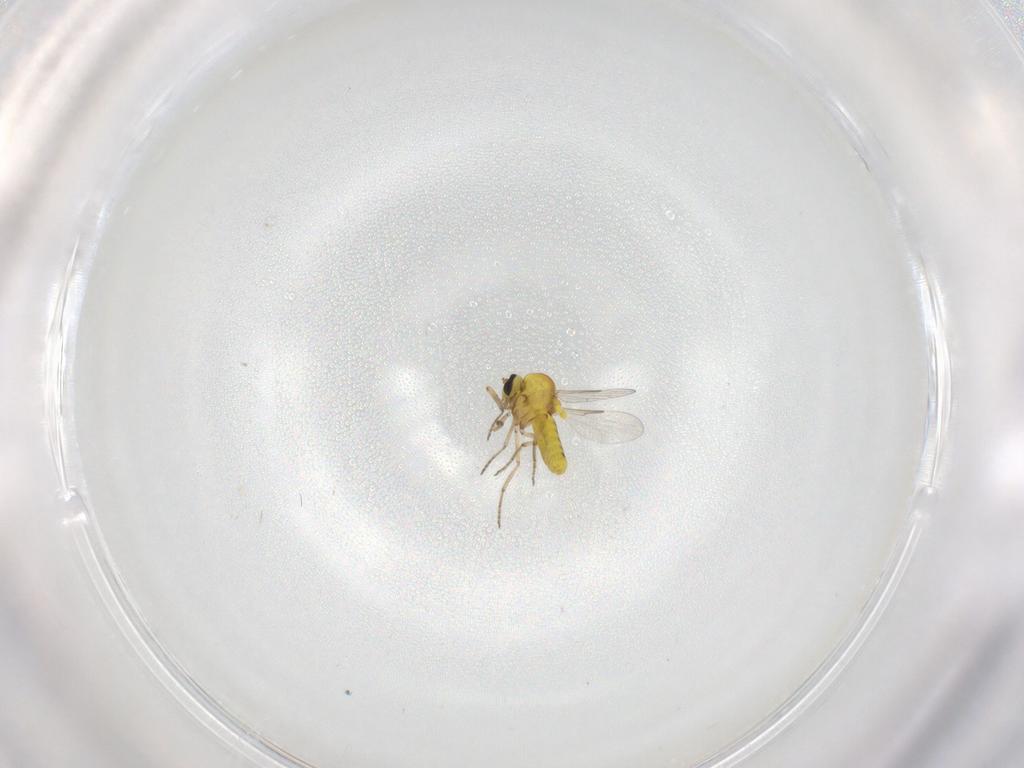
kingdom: Animalia
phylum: Arthropoda
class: Insecta
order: Diptera
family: Ceratopogonidae
